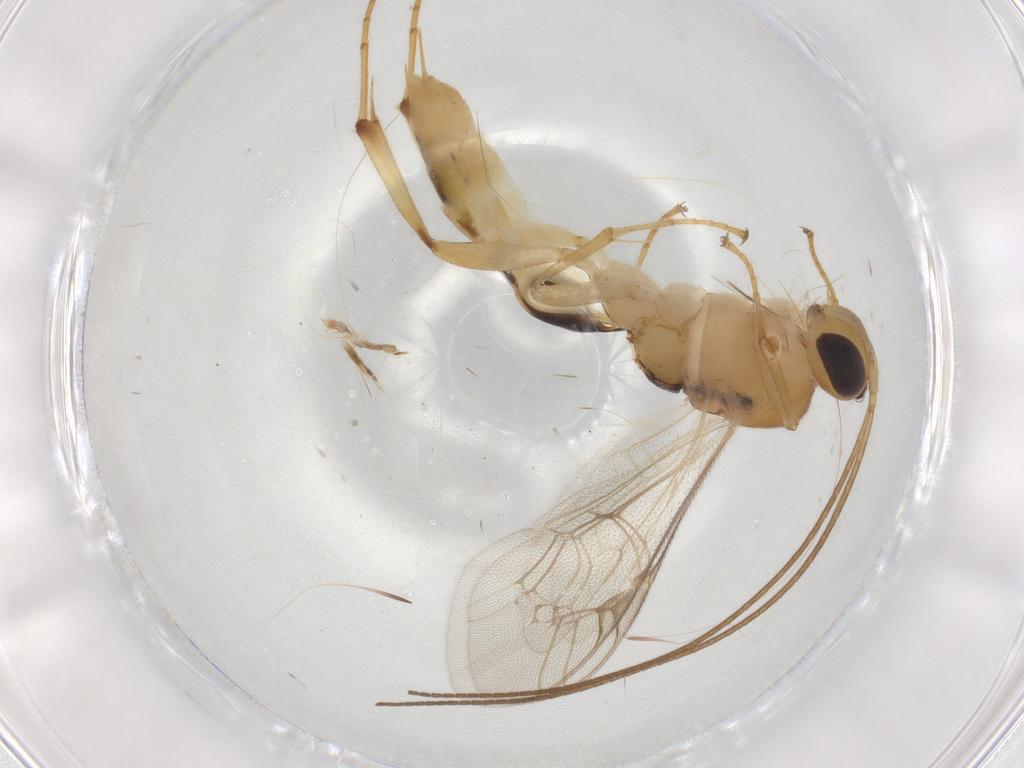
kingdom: Animalia
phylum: Arthropoda
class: Insecta
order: Hymenoptera
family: Ichneumonidae
